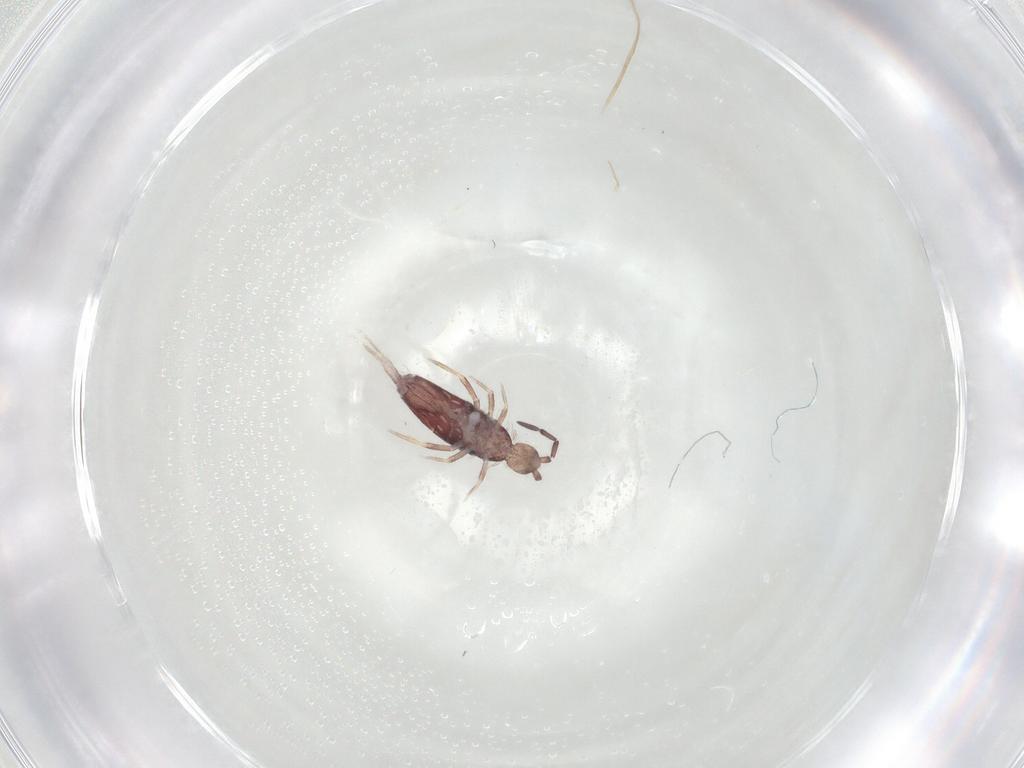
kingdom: Animalia
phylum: Arthropoda
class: Collembola
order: Entomobryomorpha
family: Entomobryidae
